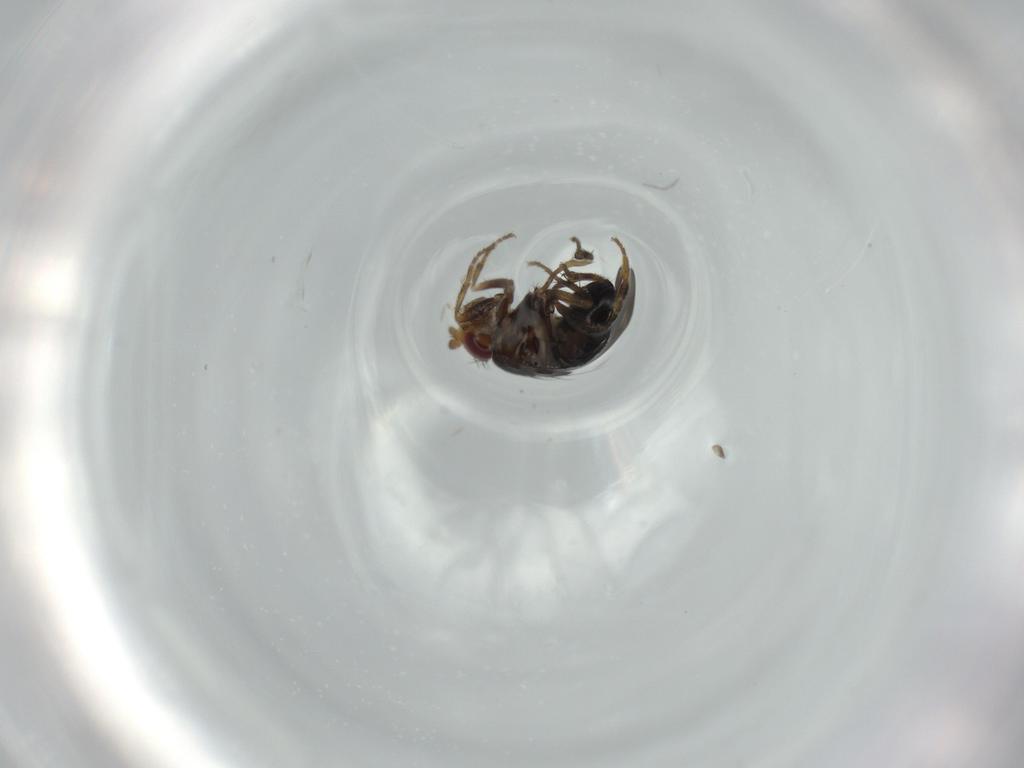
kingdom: Animalia
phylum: Arthropoda
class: Insecta
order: Diptera
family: Sphaeroceridae
